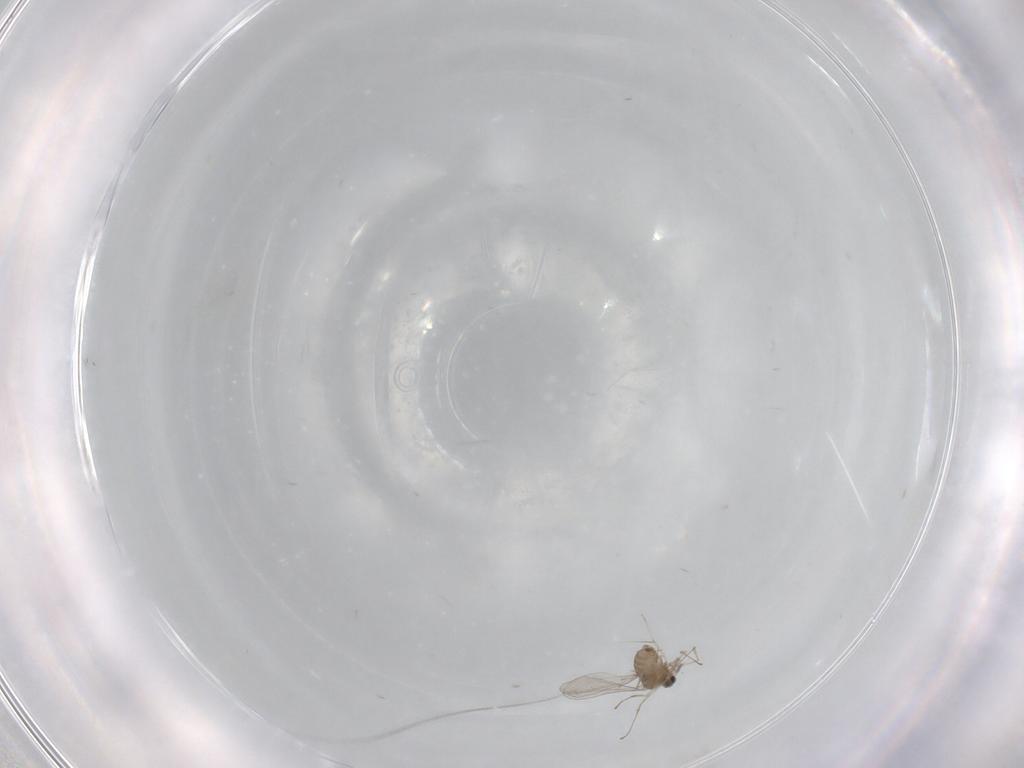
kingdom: Animalia
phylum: Arthropoda
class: Insecta
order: Diptera
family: Cecidomyiidae
